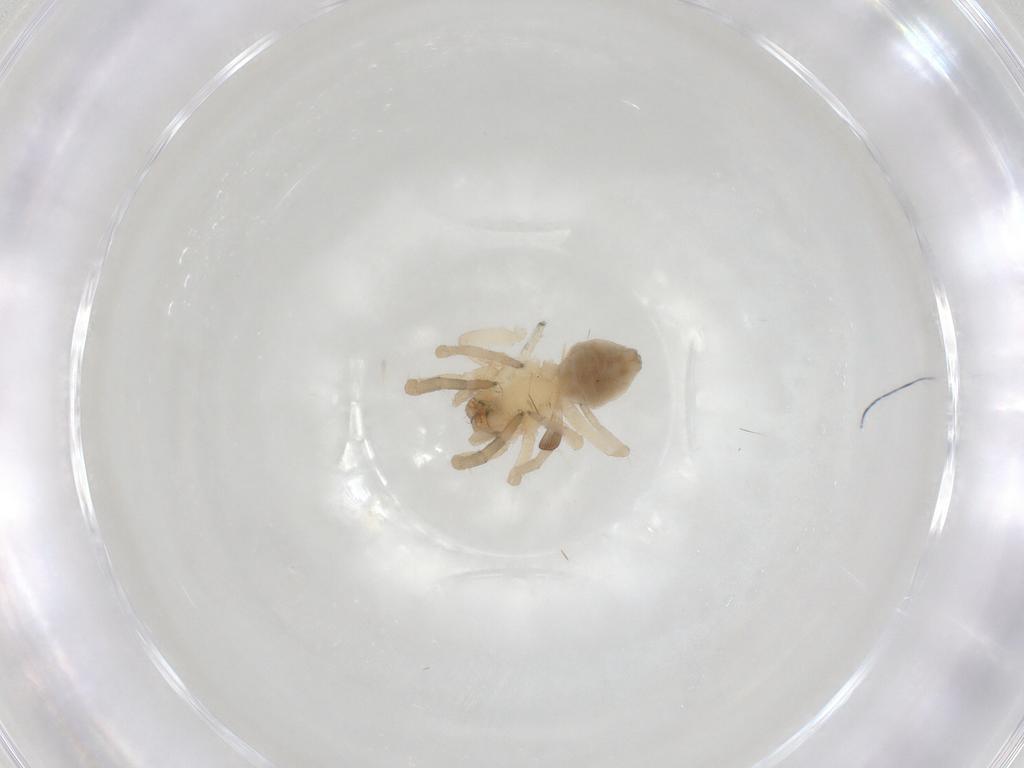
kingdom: Animalia
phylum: Arthropoda
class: Arachnida
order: Araneae
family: Trachelidae
